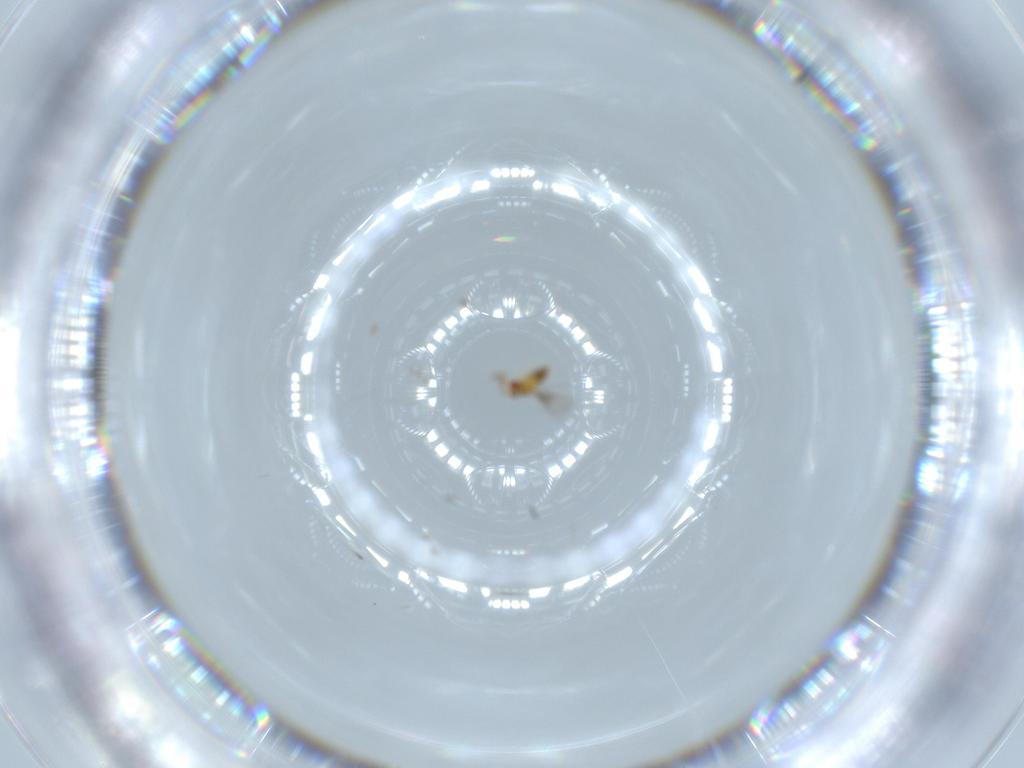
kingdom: Animalia
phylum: Arthropoda
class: Insecta
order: Hymenoptera
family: Scelionidae
